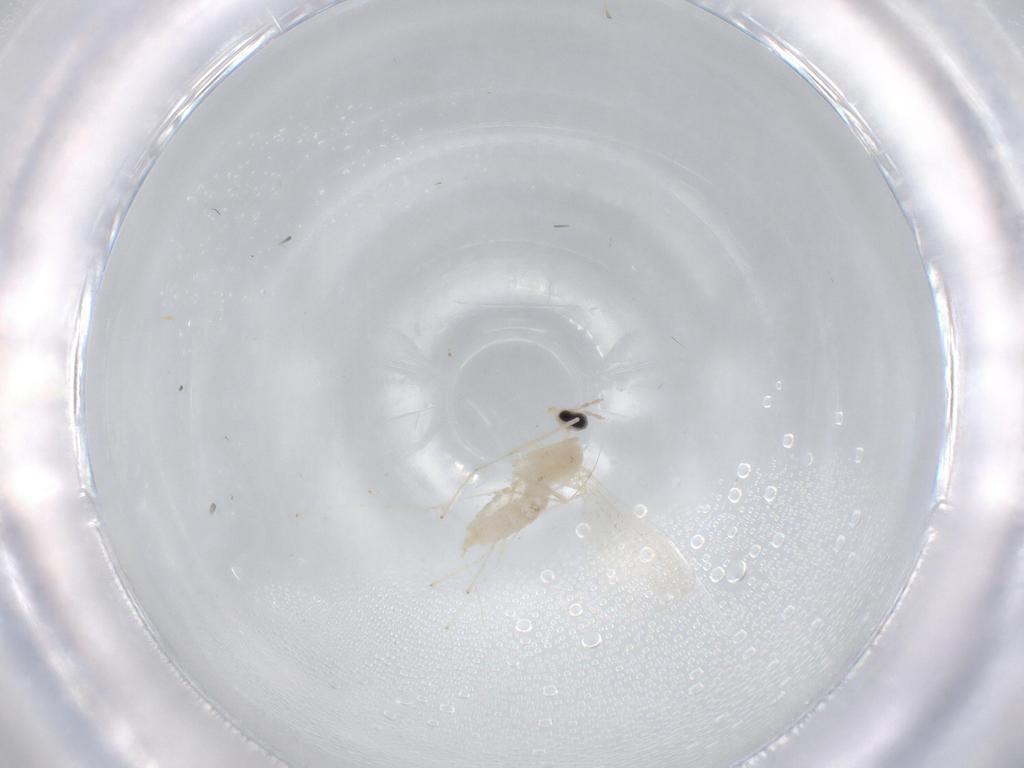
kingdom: Animalia
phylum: Arthropoda
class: Insecta
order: Diptera
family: Cecidomyiidae
